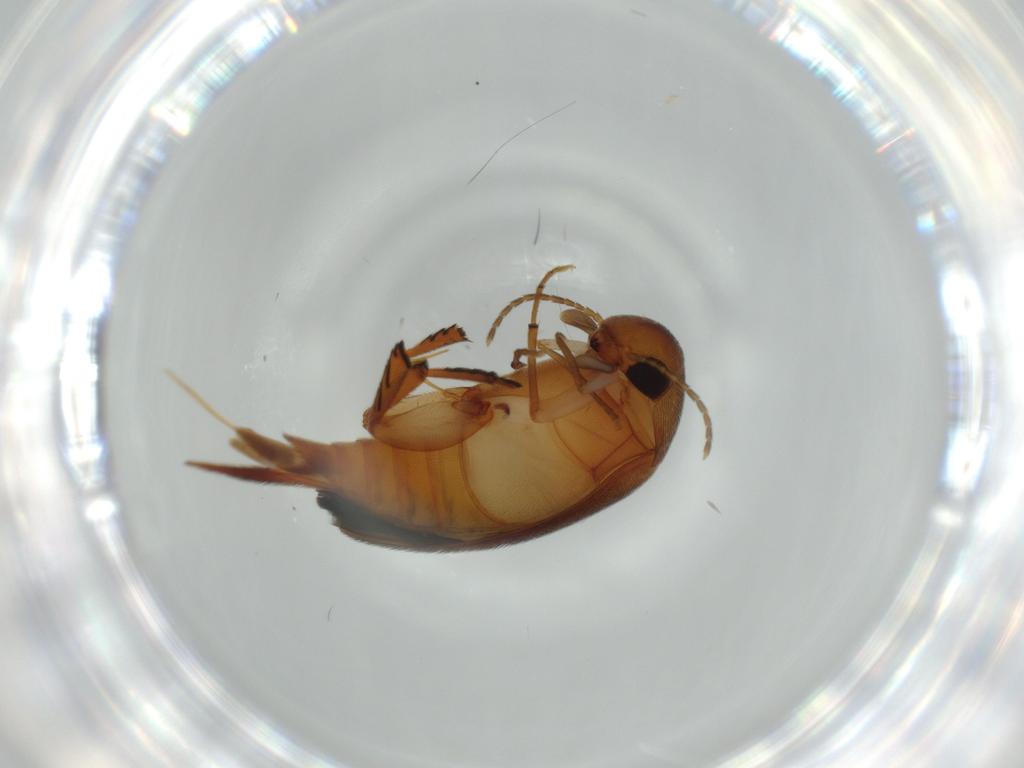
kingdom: Animalia
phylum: Arthropoda
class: Insecta
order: Coleoptera
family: Mordellidae
